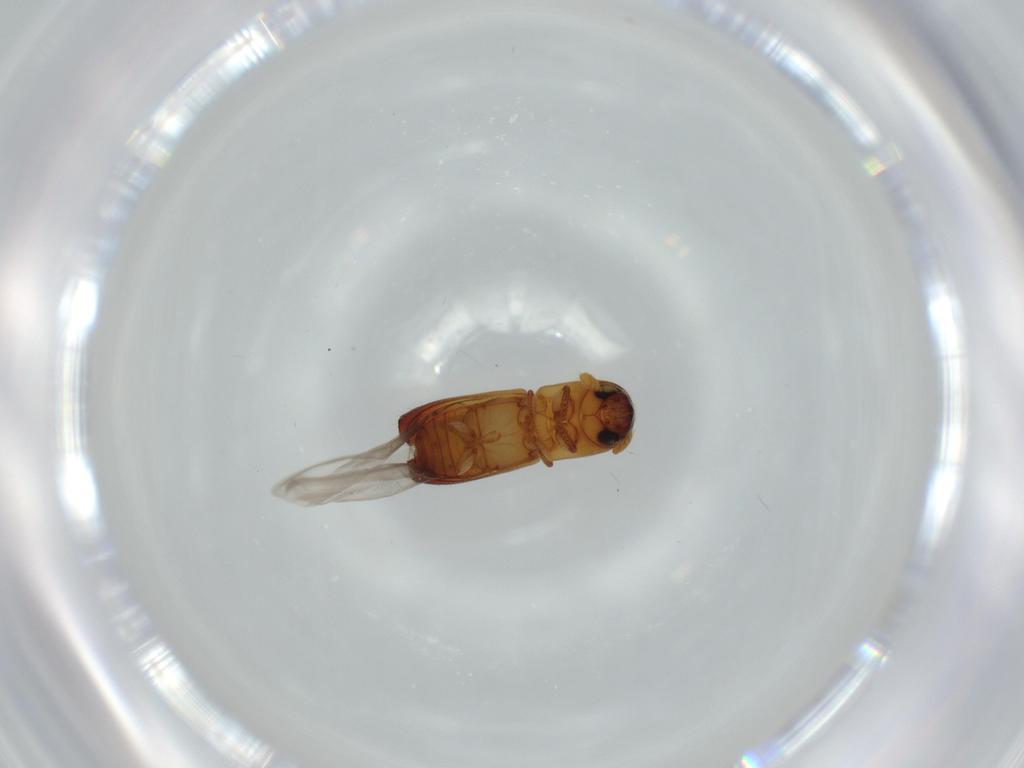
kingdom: Animalia
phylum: Arthropoda
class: Insecta
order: Coleoptera
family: Curculionidae
